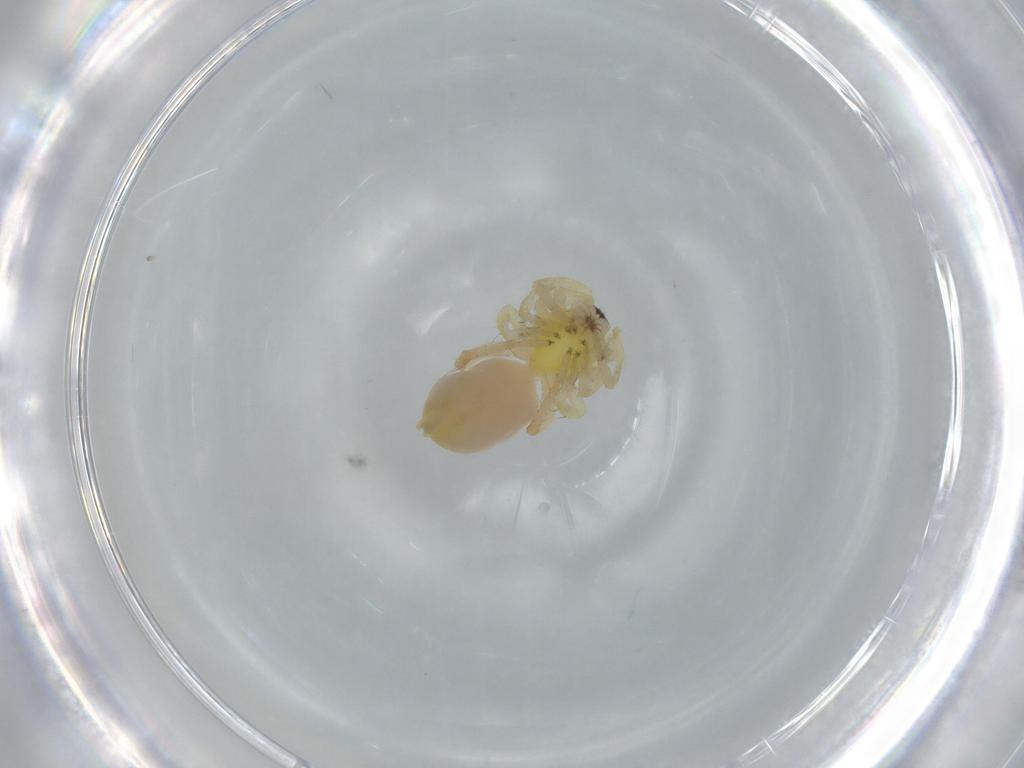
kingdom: Animalia
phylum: Arthropoda
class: Arachnida
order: Araneae
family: Anyphaenidae
